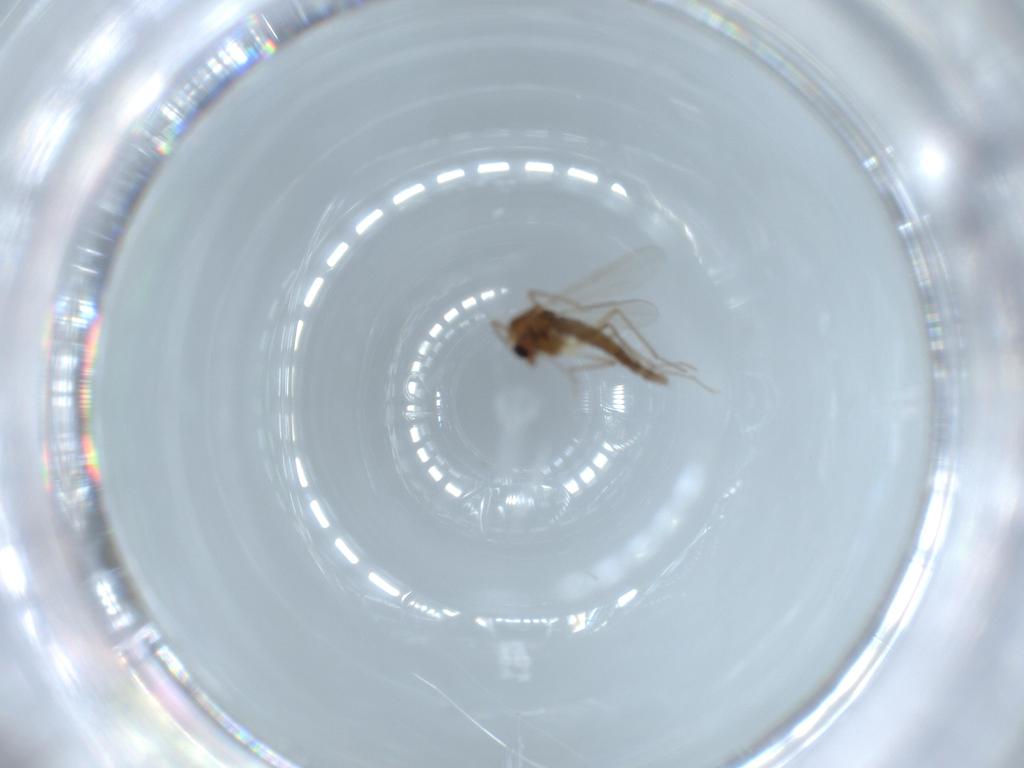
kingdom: Animalia
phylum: Arthropoda
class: Insecta
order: Diptera
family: Chironomidae
